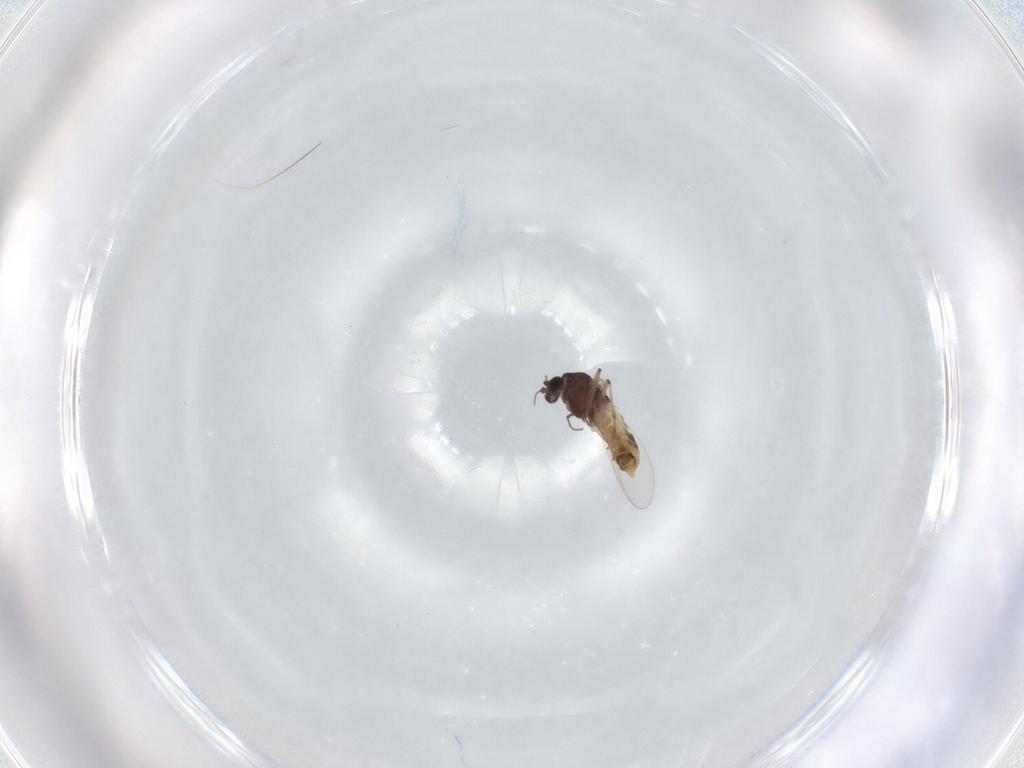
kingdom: Animalia
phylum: Arthropoda
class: Insecta
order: Diptera
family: Chironomidae
